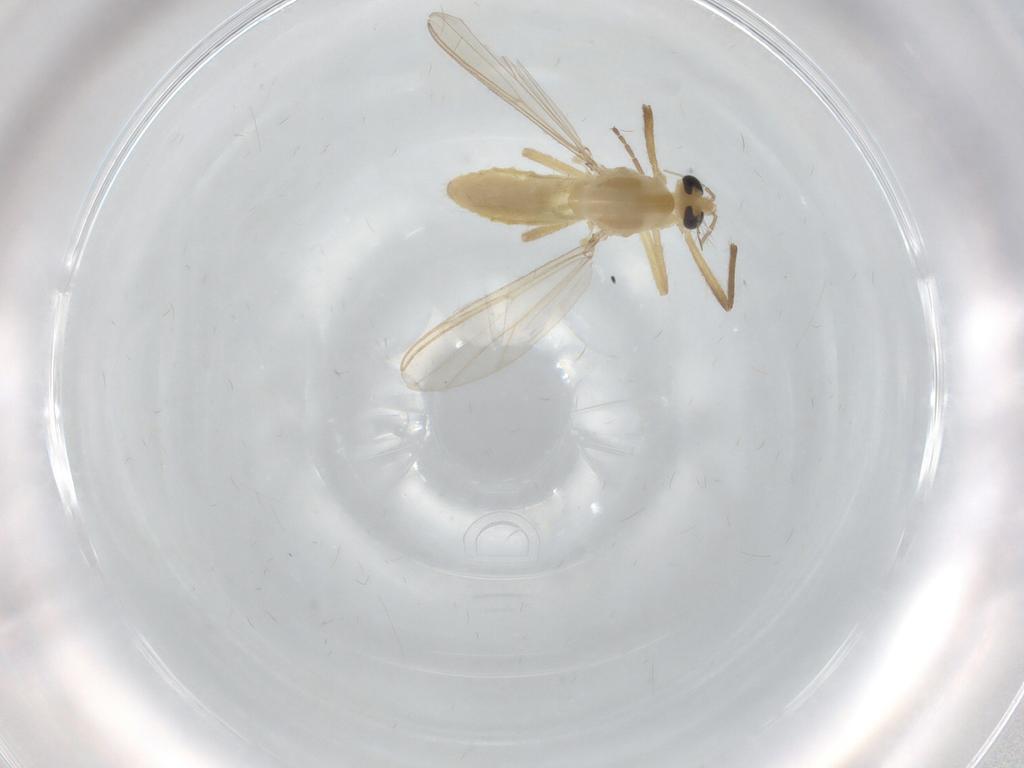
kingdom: Animalia
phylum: Arthropoda
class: Insecta
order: Diptera
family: Chironomidae
